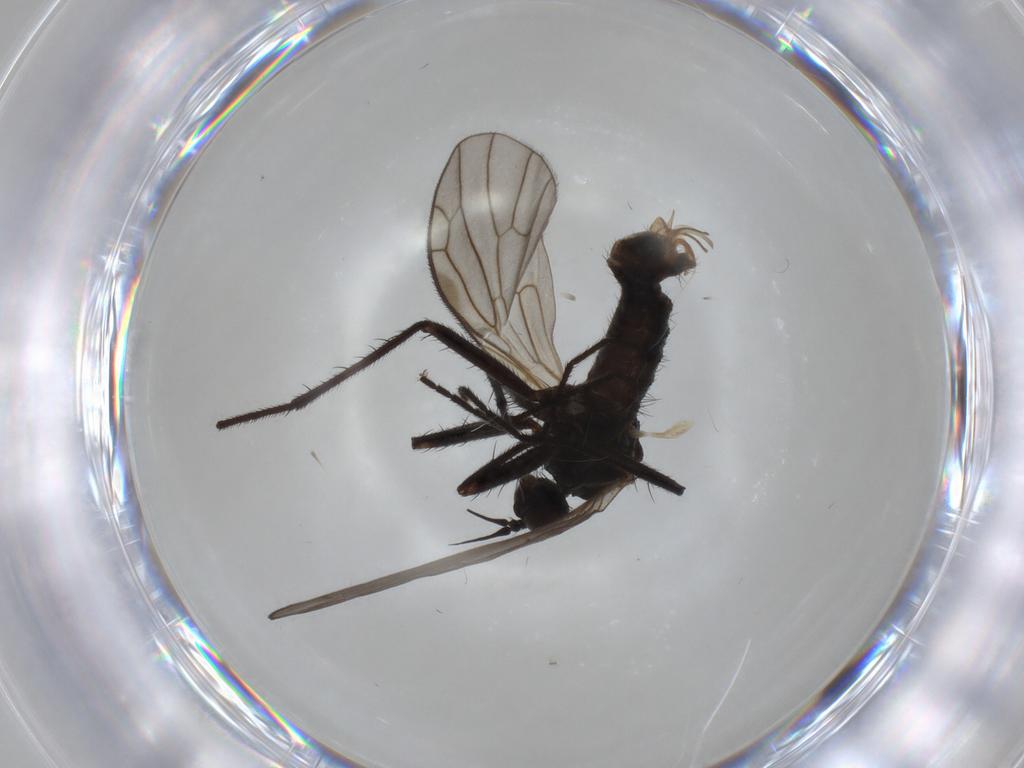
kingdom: Animalia
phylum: Arthropoda
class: Insecta
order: Diptera
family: Empididae
